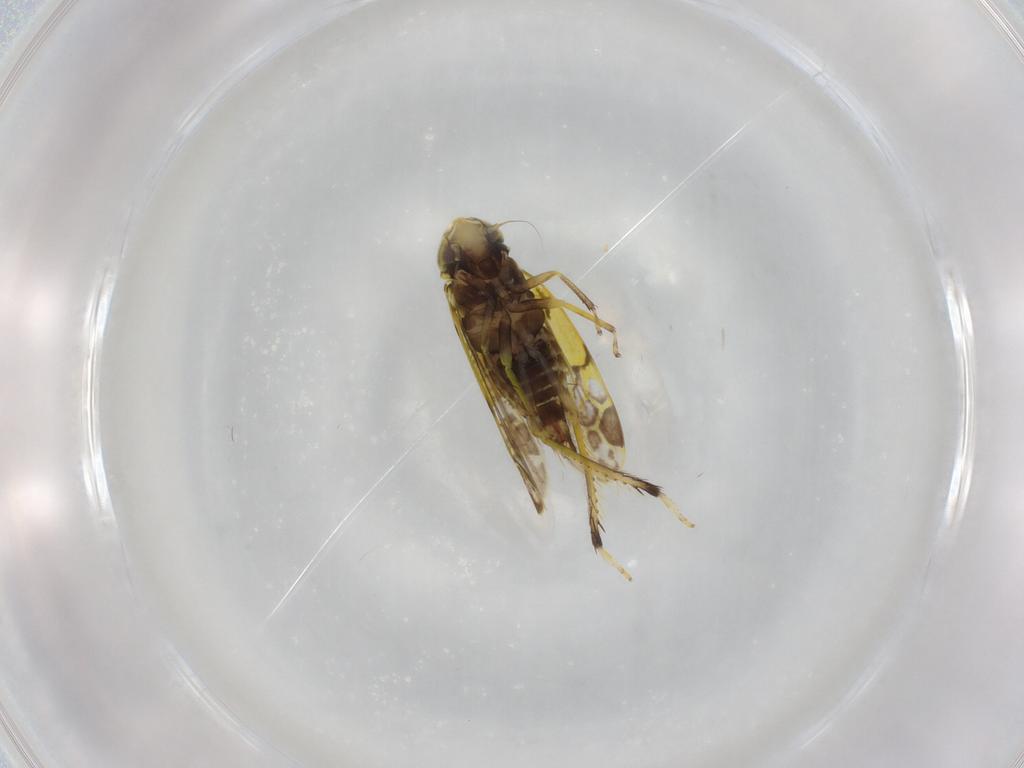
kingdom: Animalia
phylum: Arthropoda
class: Insecta
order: Hemiptera
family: Cicadellidae
